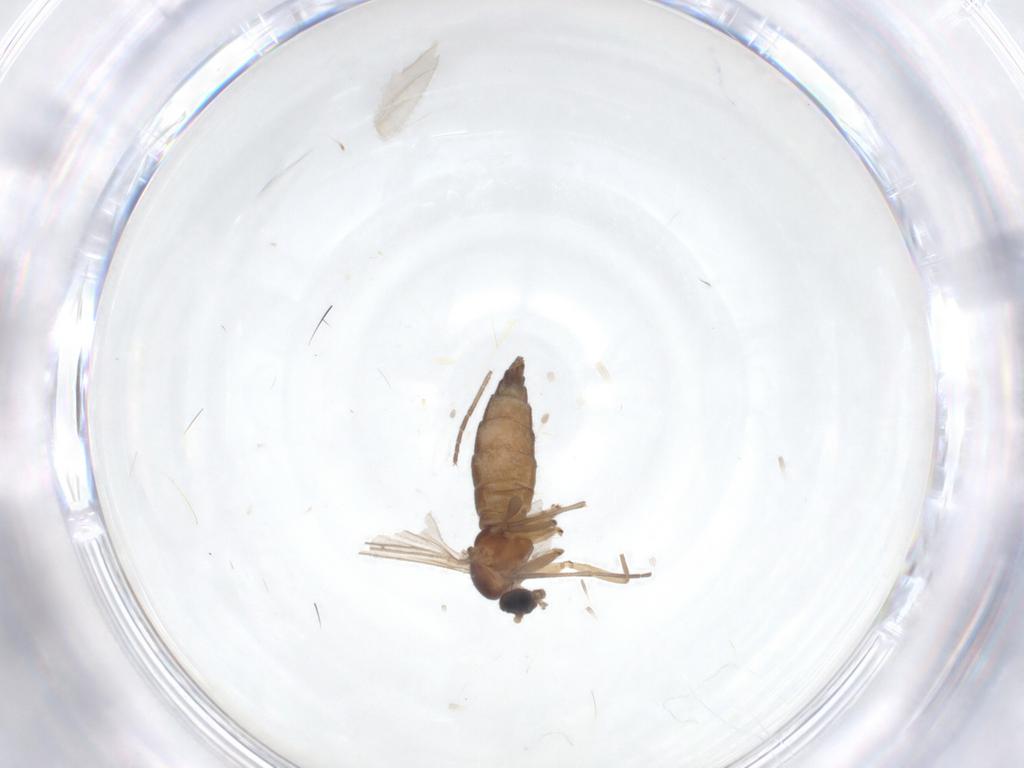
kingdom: Animalia
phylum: Arthropoda
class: Insecta
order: Diptera
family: Sciaridae
